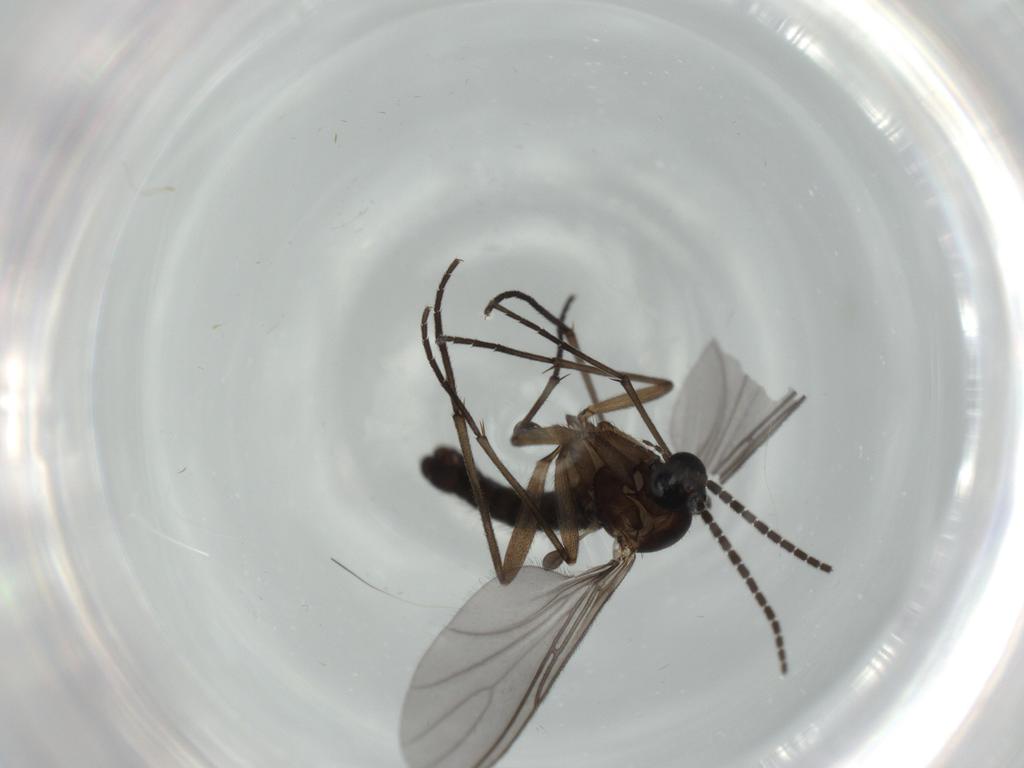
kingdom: Animalia
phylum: Arthropoda
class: Insecta
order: Diptera
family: Sciaridae
